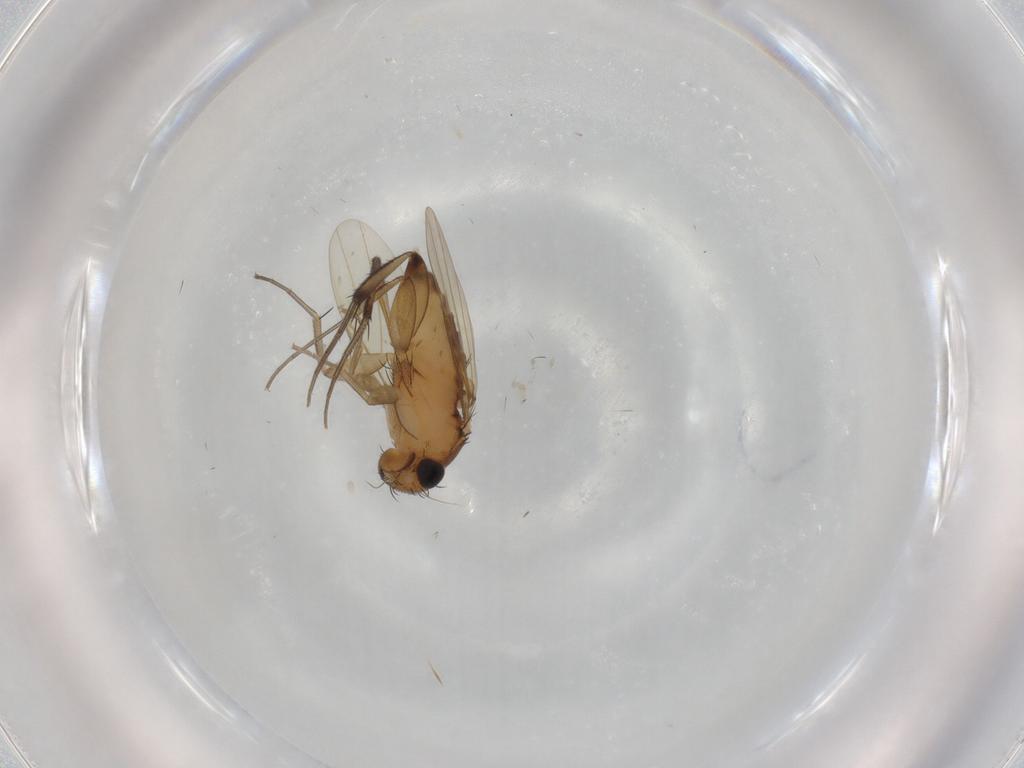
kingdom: Animalia
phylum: Arthropoda
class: Insecta
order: Diptera
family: Phoridae
